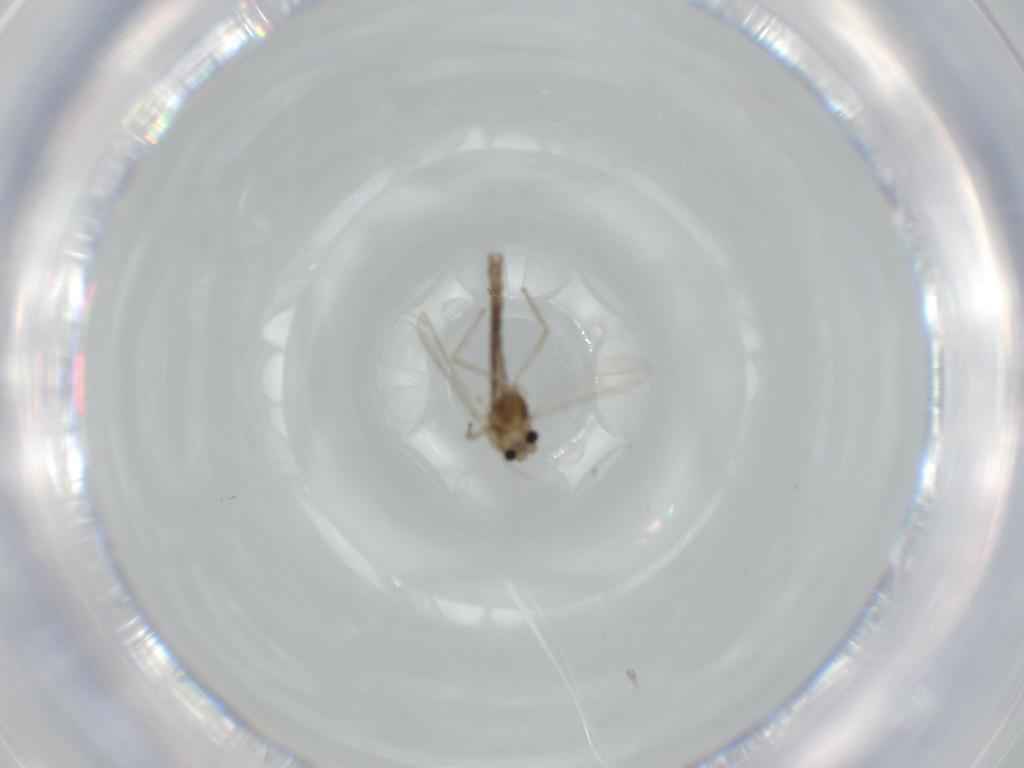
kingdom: Animalia
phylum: Arthropoda
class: Insecta
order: Diptera
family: Chironomidae
